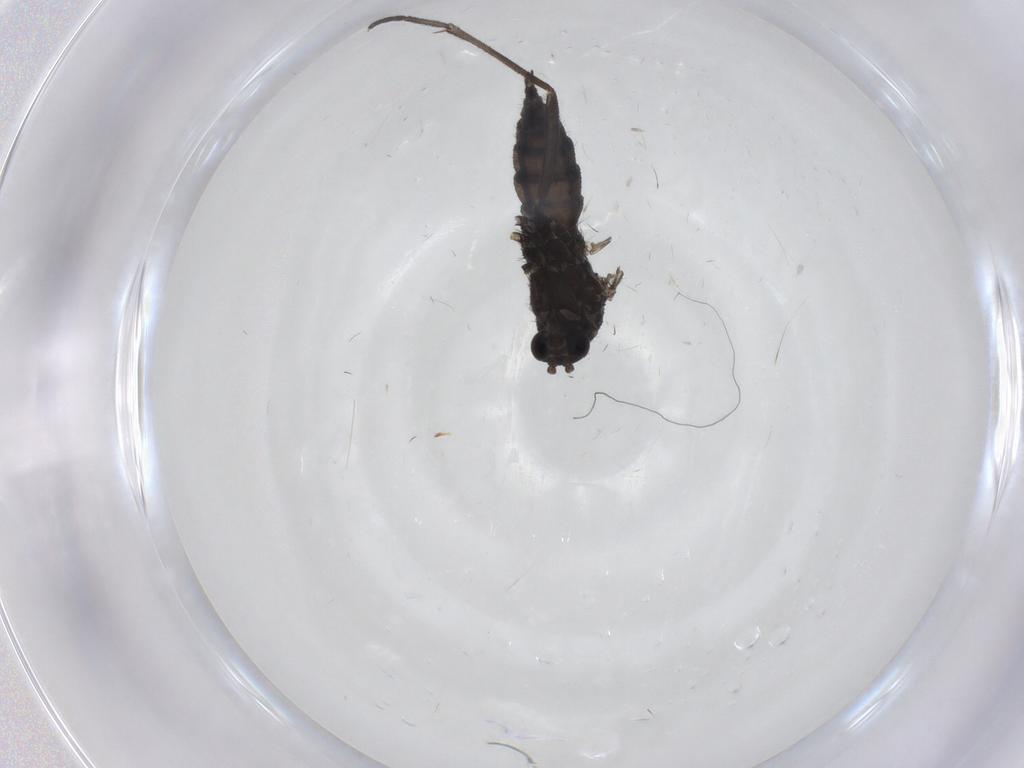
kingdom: Animalia
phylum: Arthropoda
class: Insecta
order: Diptera
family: Sciaridae
